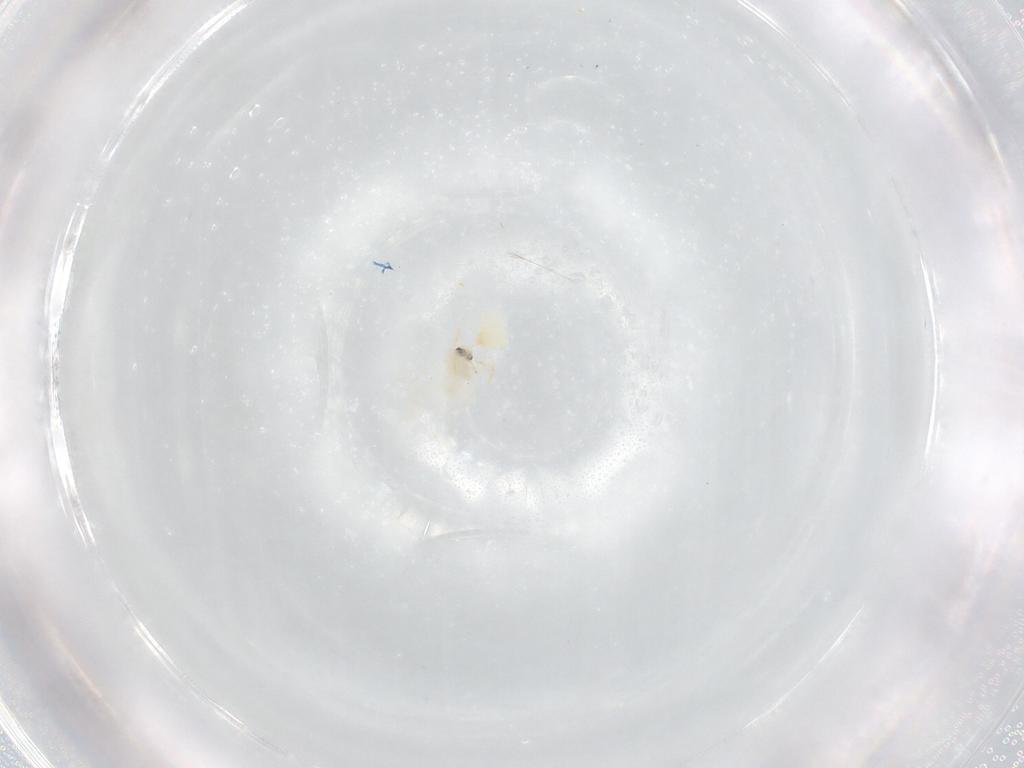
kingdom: Animalia
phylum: Arthropoda
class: Insecta
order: Hemiptera
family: Aleyrodidae
